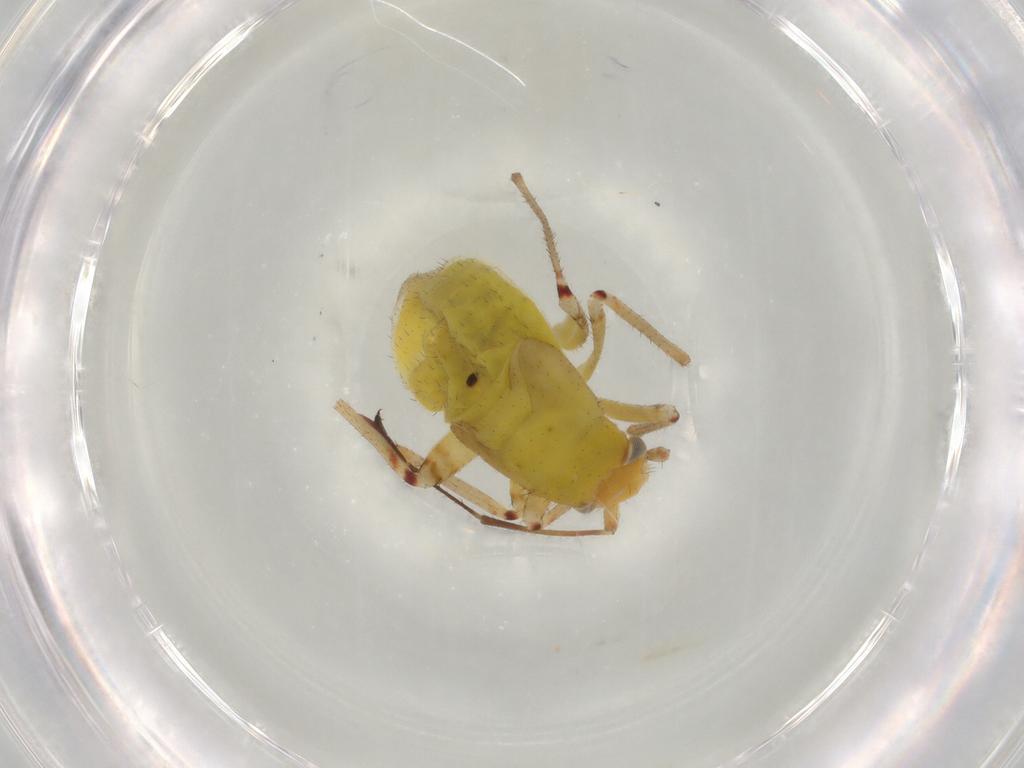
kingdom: Animalia
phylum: Arthropoda
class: Insecta
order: Hemiptera
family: Miridae
